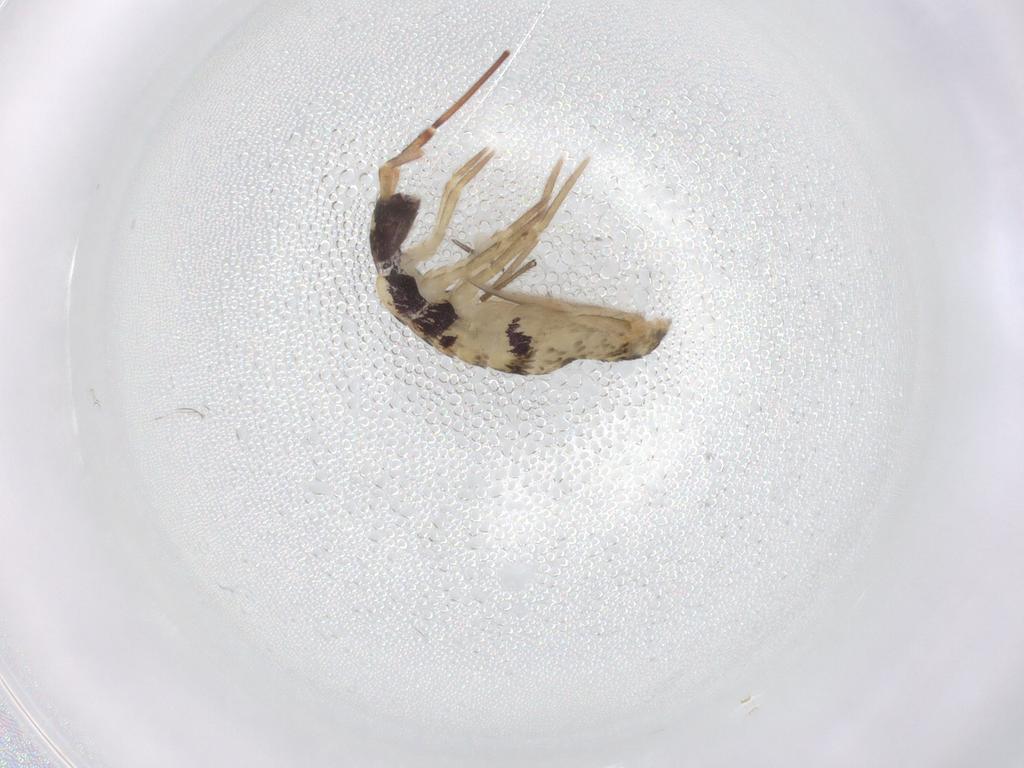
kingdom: Animalia
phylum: Arthropoda
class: Collembola
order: Entomobryomorpha
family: Entomobryidae
